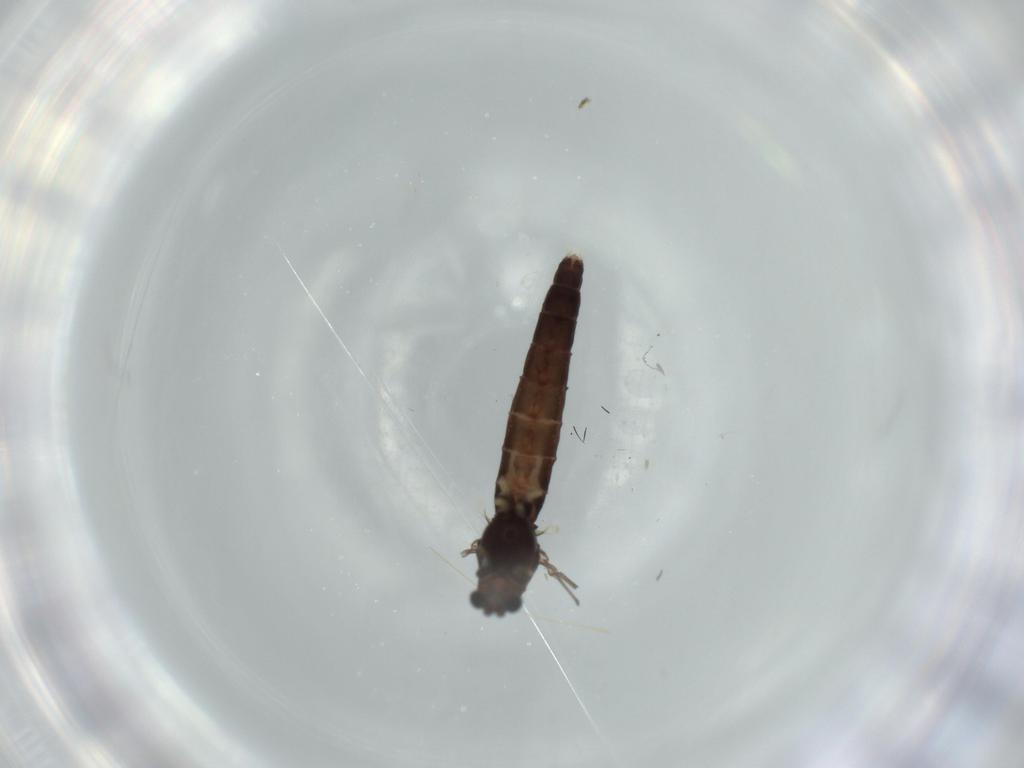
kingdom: Animalia
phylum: Arthropoda
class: Insecta
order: Diptera
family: Chironomidae
